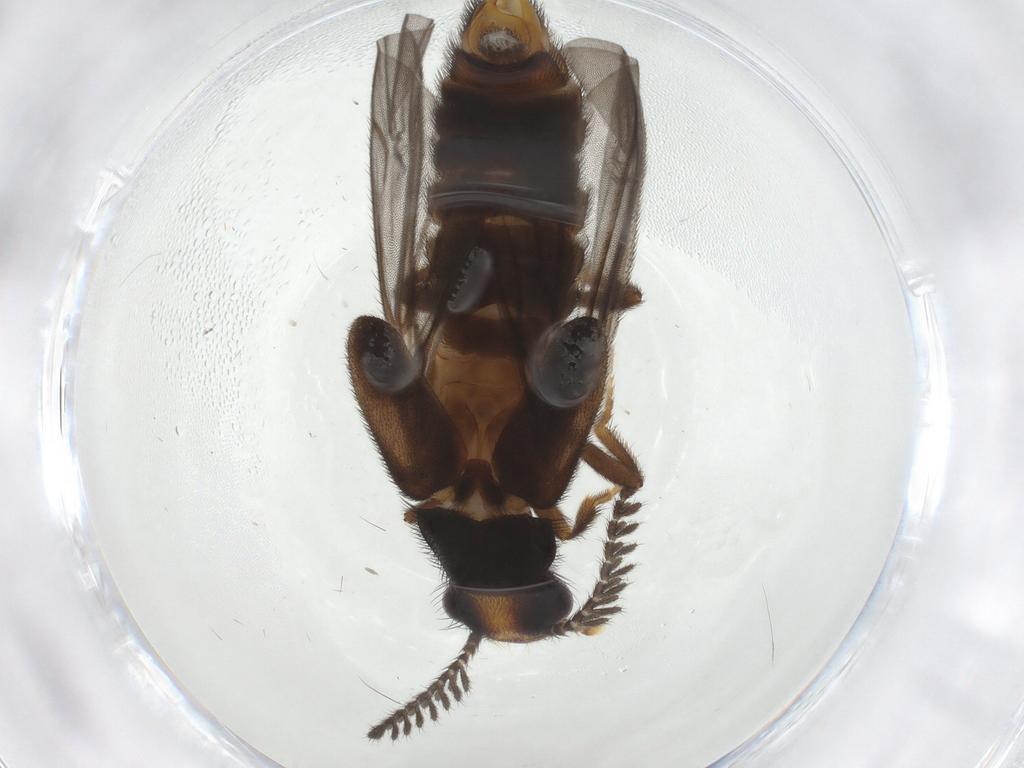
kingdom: Animalia
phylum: Arthropoda
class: Insecta
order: Coleoptera
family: Phengodidae
